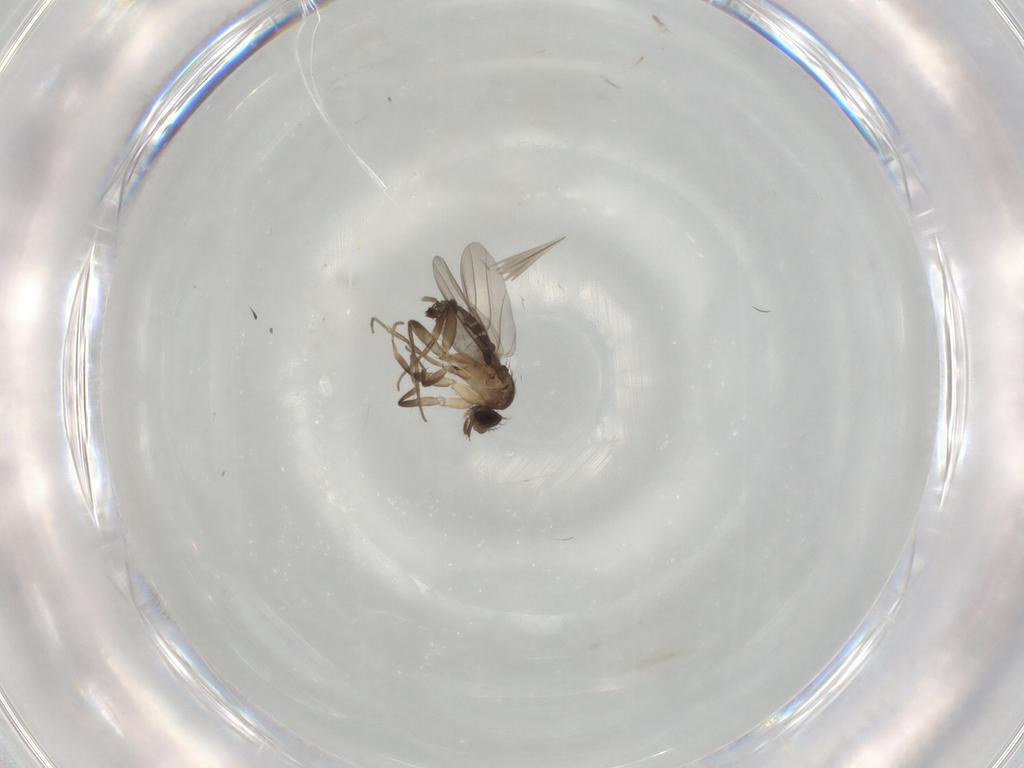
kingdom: Animalia
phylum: Arthropoda
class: Insecta
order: Diptera
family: Phoridae
